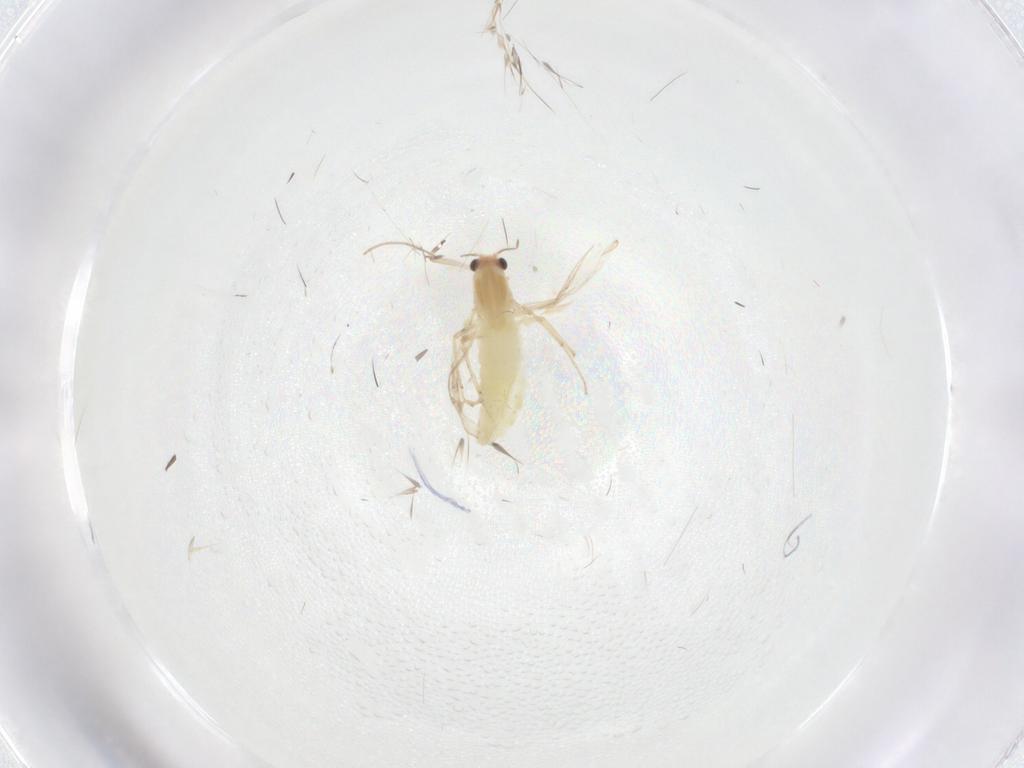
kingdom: Animalia
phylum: Arthropoda
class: Insecta
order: Diptera
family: Chironomidae
